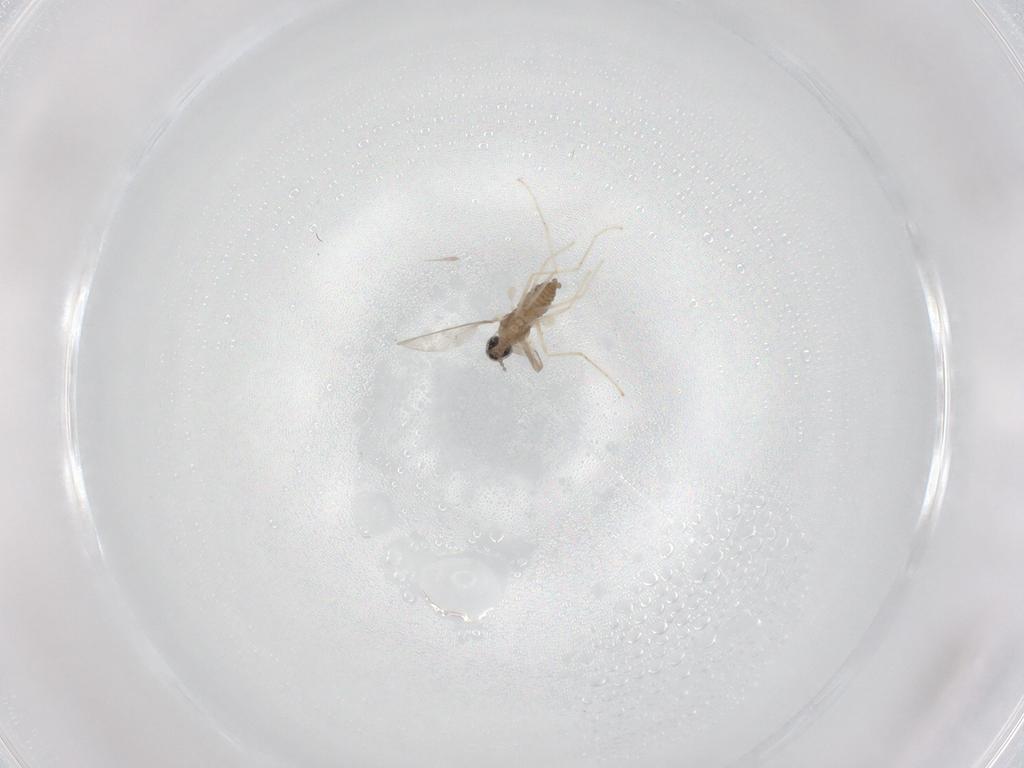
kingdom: Animalia
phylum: Arthropoda
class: Insecta
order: Diptera
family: Cecidomyiidae
